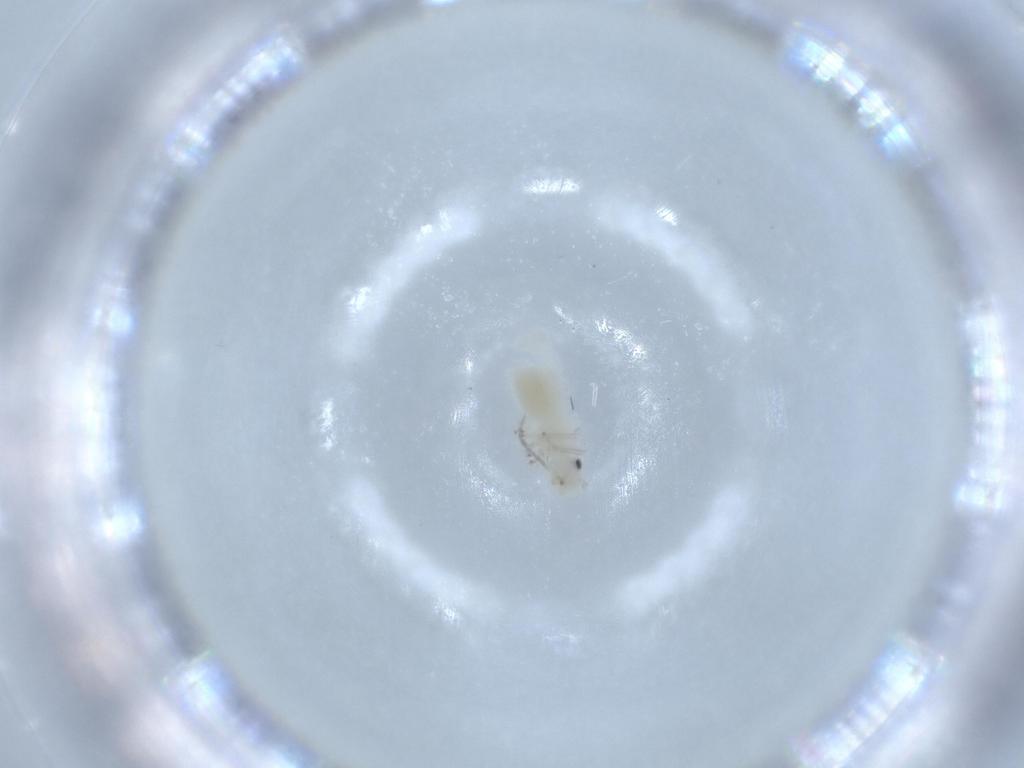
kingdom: Animalia
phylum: Arthropoda
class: Insecta
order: Psocodea
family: Caeciliusidae
